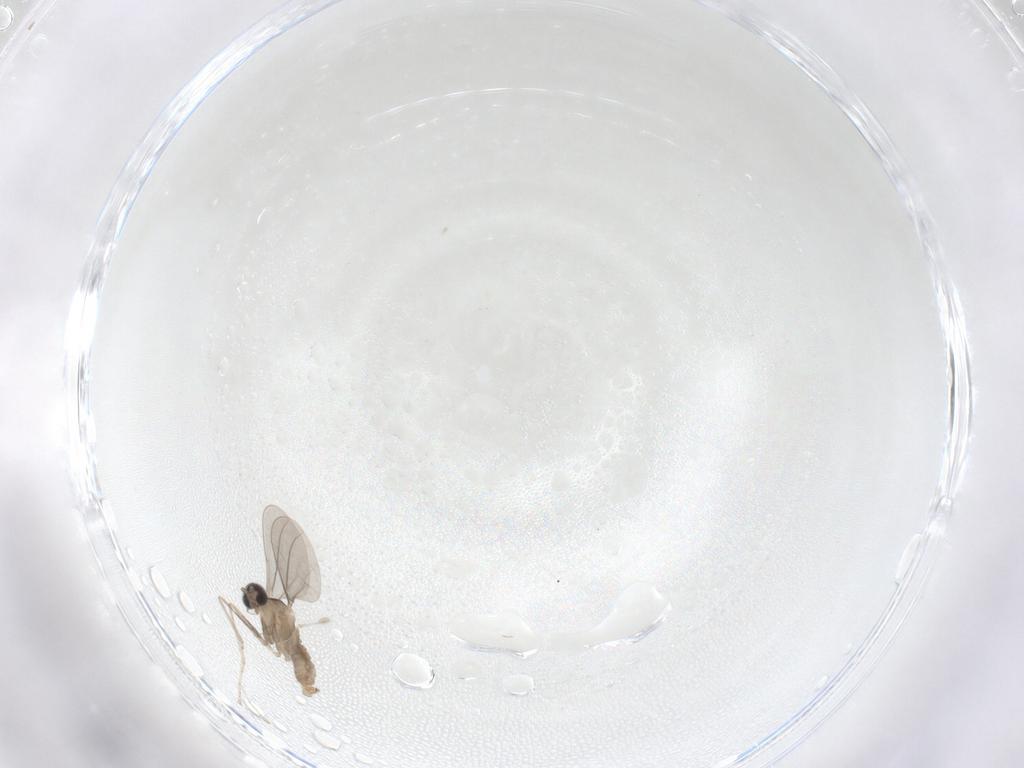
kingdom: Animalia
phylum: Arthropoda
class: Insecta
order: Diptera
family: Cecidomyiidae
